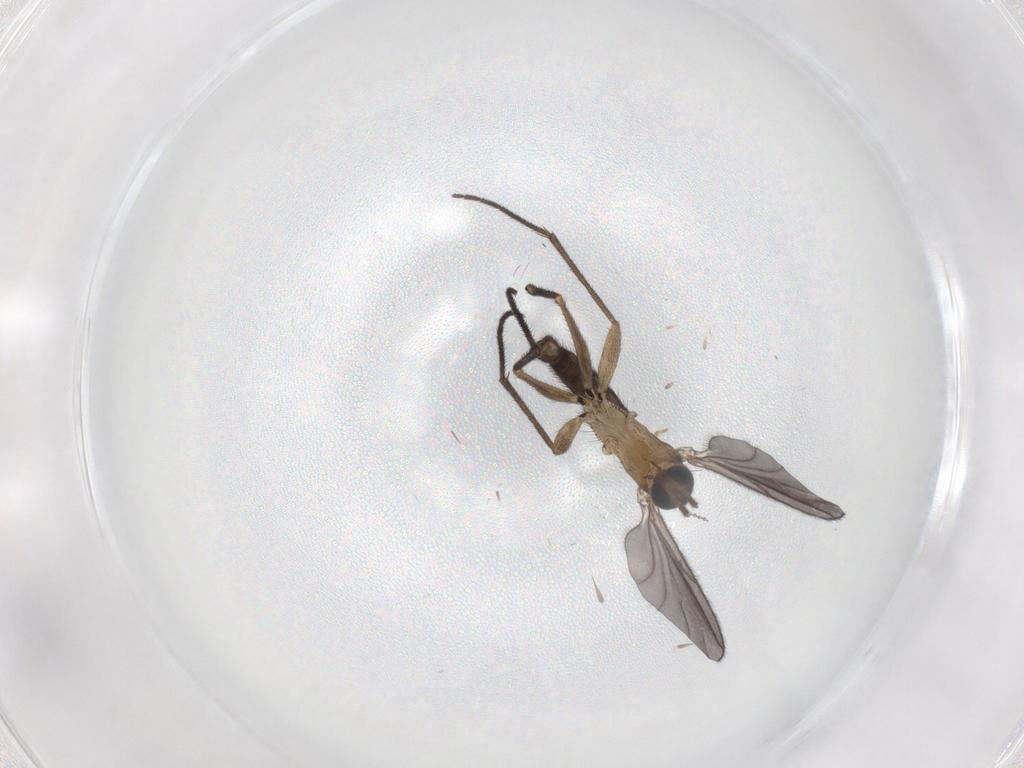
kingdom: Animalia
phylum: Arthropoda
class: Insecta
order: Diptera
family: Sciaridae
